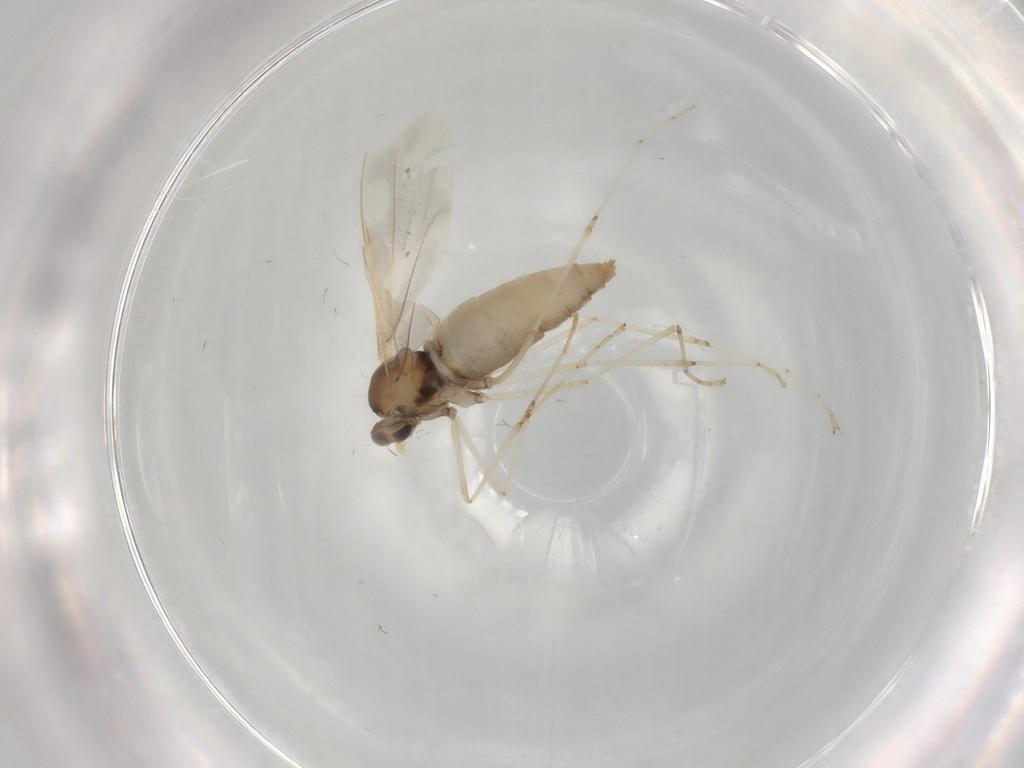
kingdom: Animalia
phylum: Arthropoda
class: Insecta
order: Diptera
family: Cecidomyiidae
